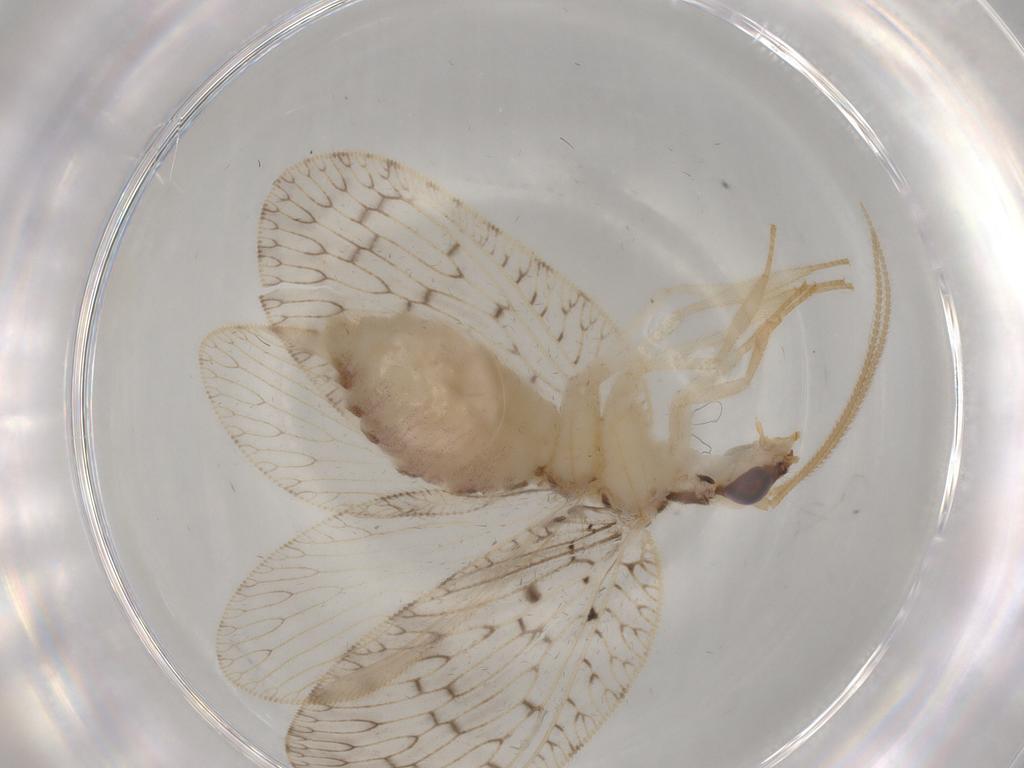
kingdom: Animalia
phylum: Arthropoda
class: Insecta
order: Neuroptera
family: Hemerobiidae
